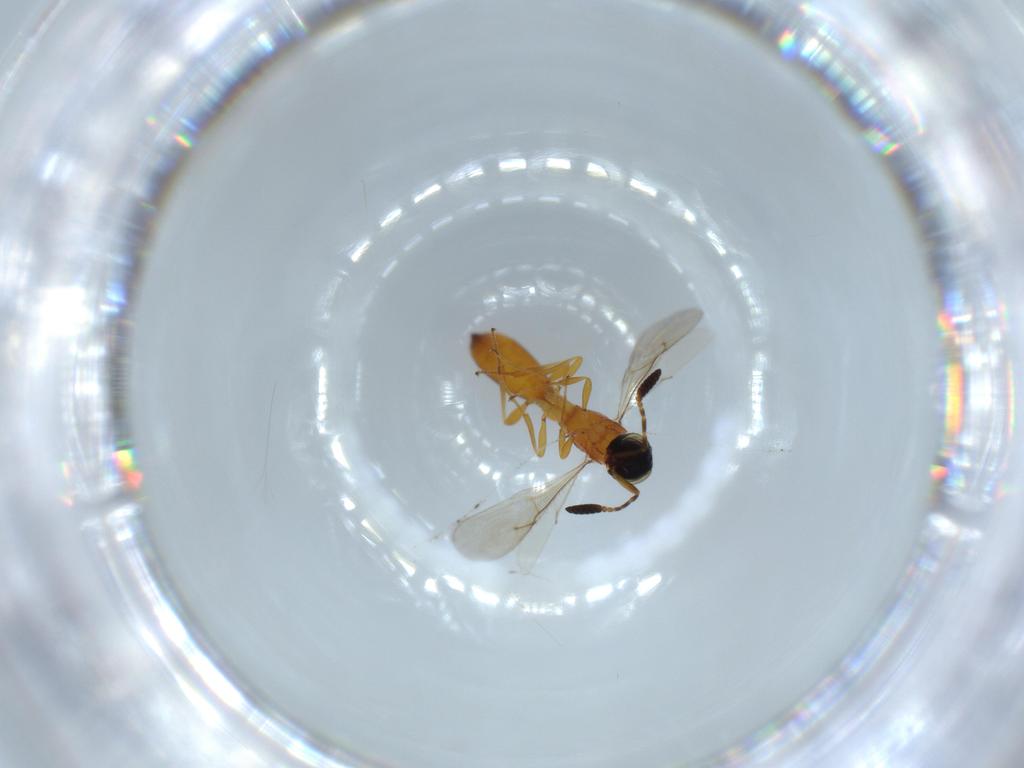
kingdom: Animalia
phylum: Arthropoda
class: Insecta
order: Hymenoptera
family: Scelionidae
